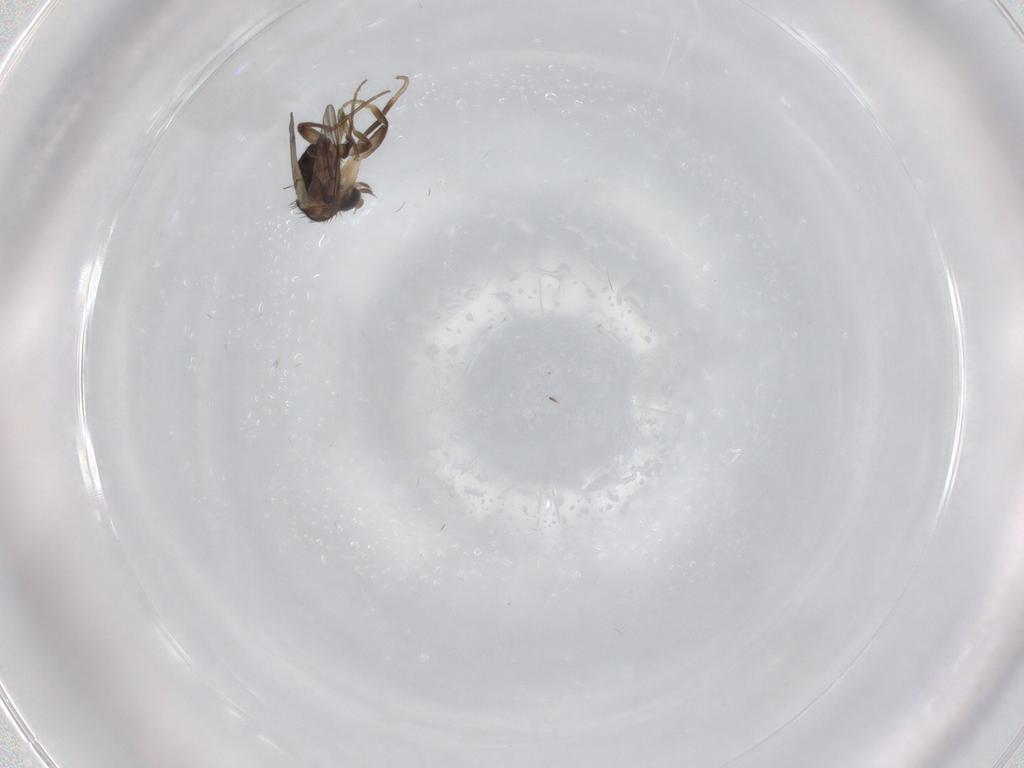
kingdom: Animalia
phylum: Arthropoda
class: Insecta
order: Diptera
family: Phoridae
